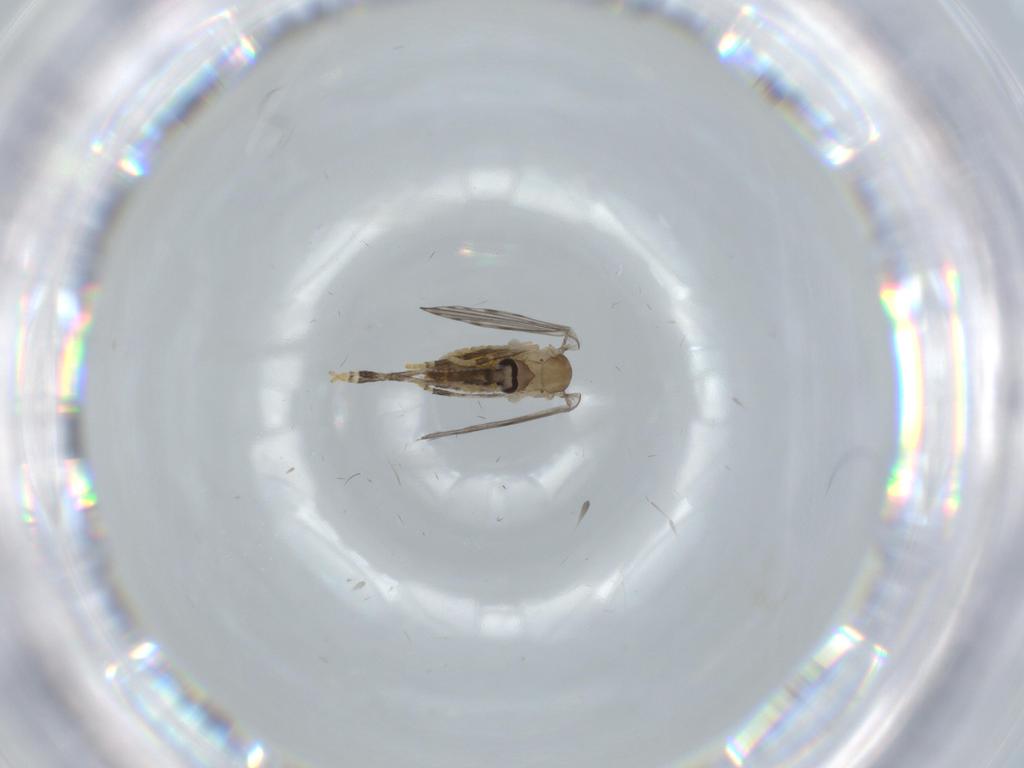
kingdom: Animalia
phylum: Arthropoda
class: Insecta
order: Diptera
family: Psychodidae
